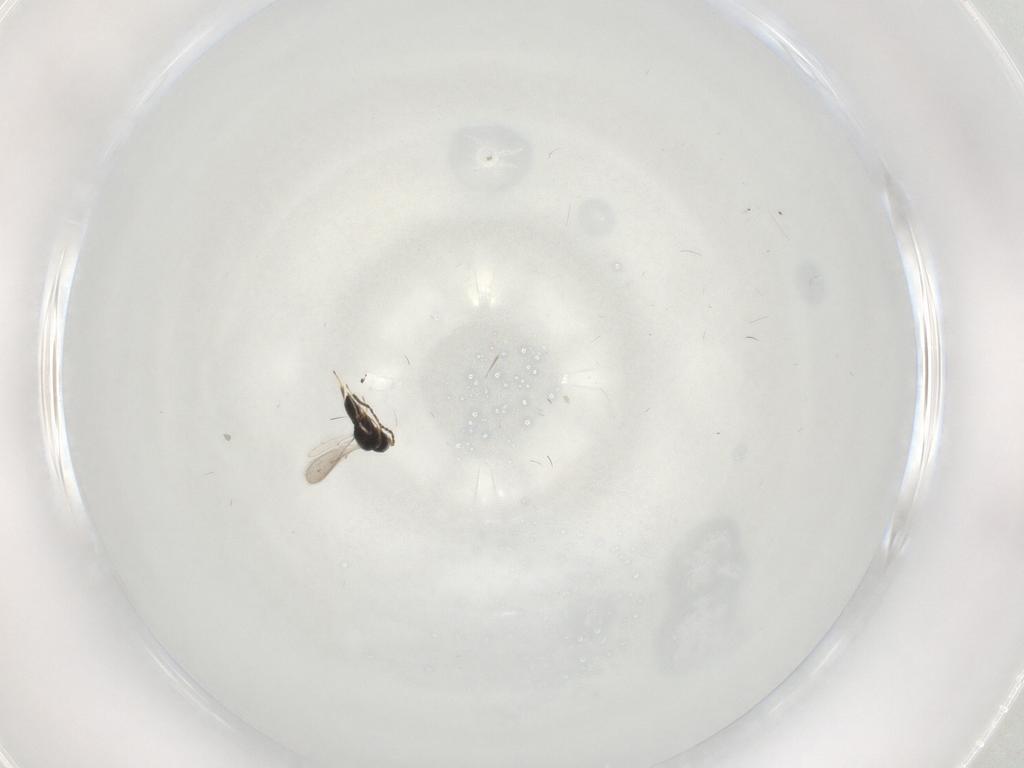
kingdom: Animalia
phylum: Arthropoda
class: Insecta
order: Hymenoptera
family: Scelionidae
